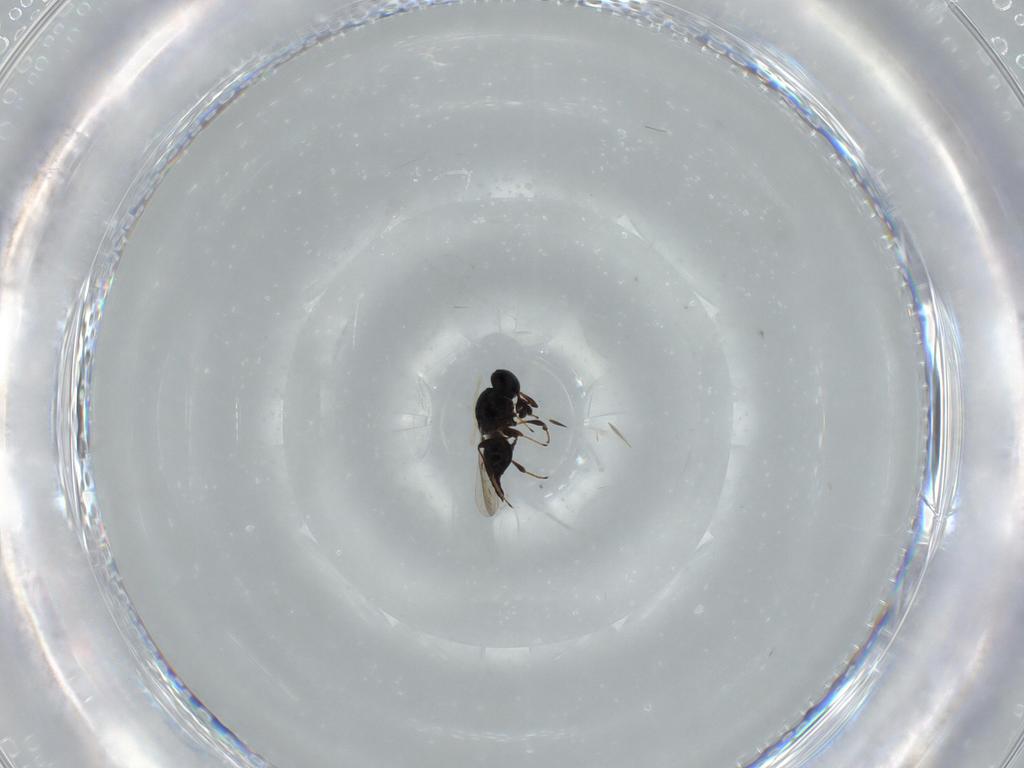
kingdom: Animalia
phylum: Arthropoda
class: Insecta
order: Hymenoptera
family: Platygastridae
